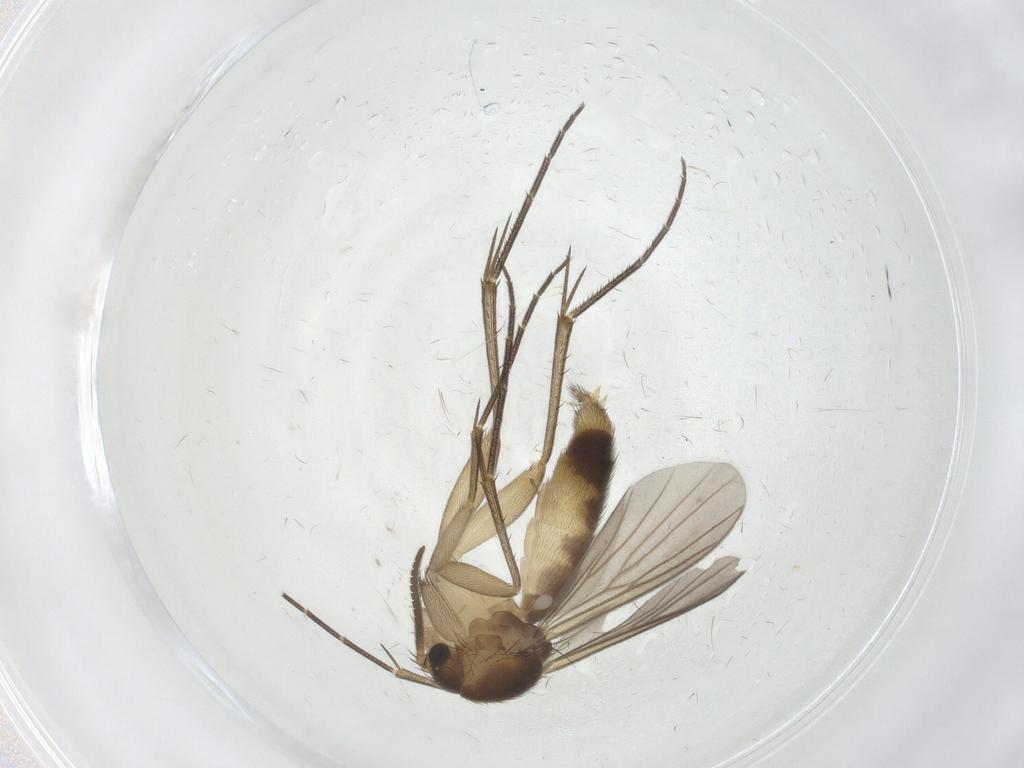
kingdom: Animalia
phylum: Arthropoda
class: Insecta
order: Diptera
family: Mycetophilidae
